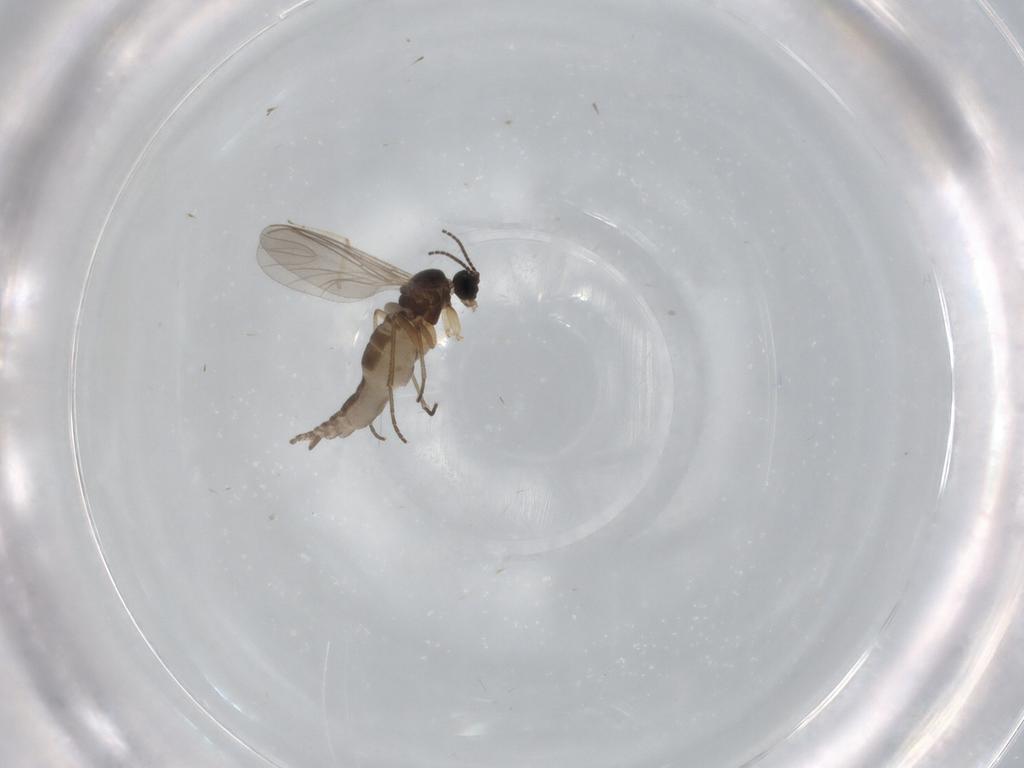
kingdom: Animalia
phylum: Arthropoda
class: Insecta
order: Diptera
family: Sciaridae
